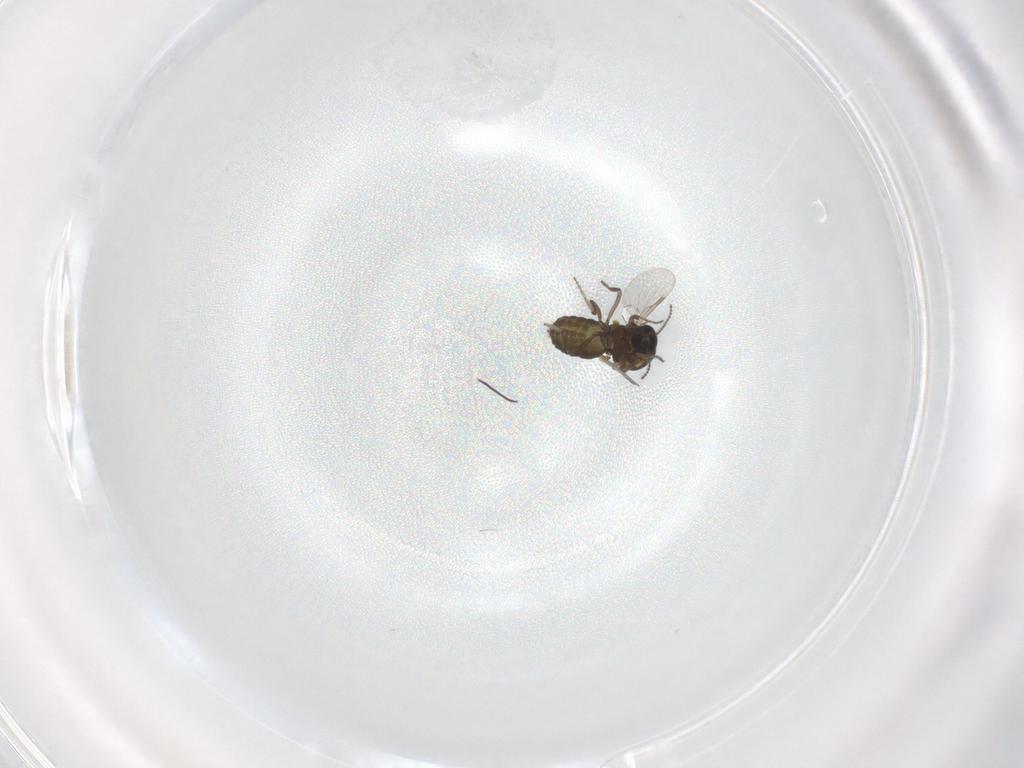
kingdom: Animalia
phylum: Arthropoda
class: Insecta
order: Diptera
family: Ceratopogonidae
